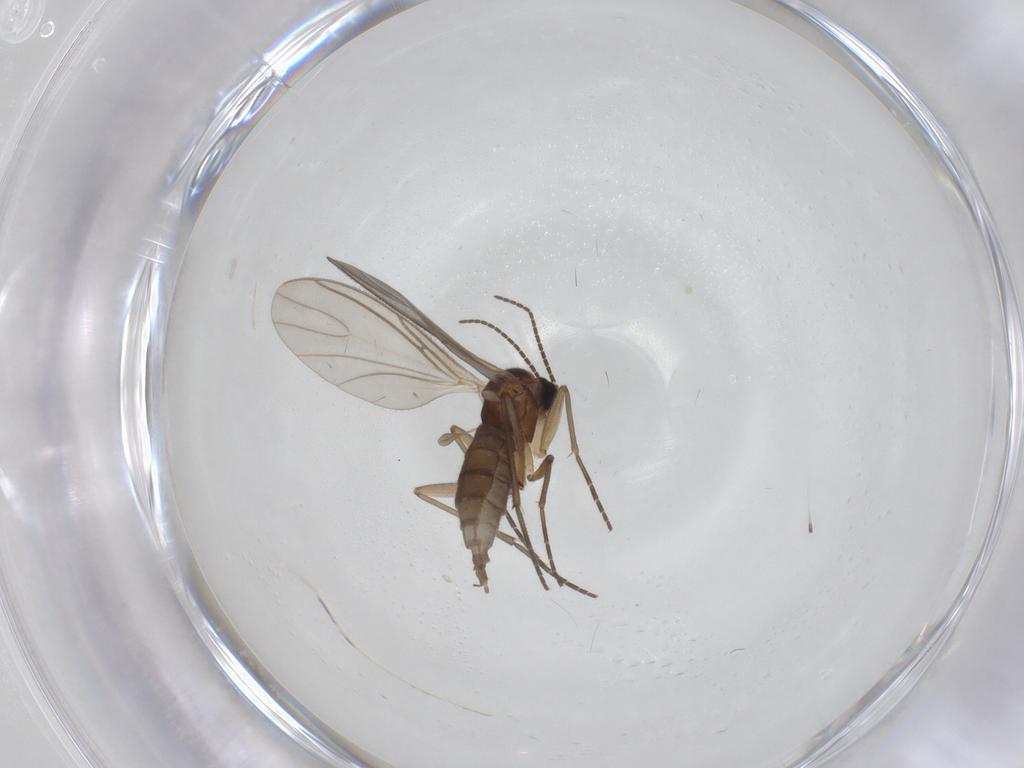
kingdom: Animalia
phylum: Arthropoda
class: Insecta
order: Diptera
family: Sciaridae
